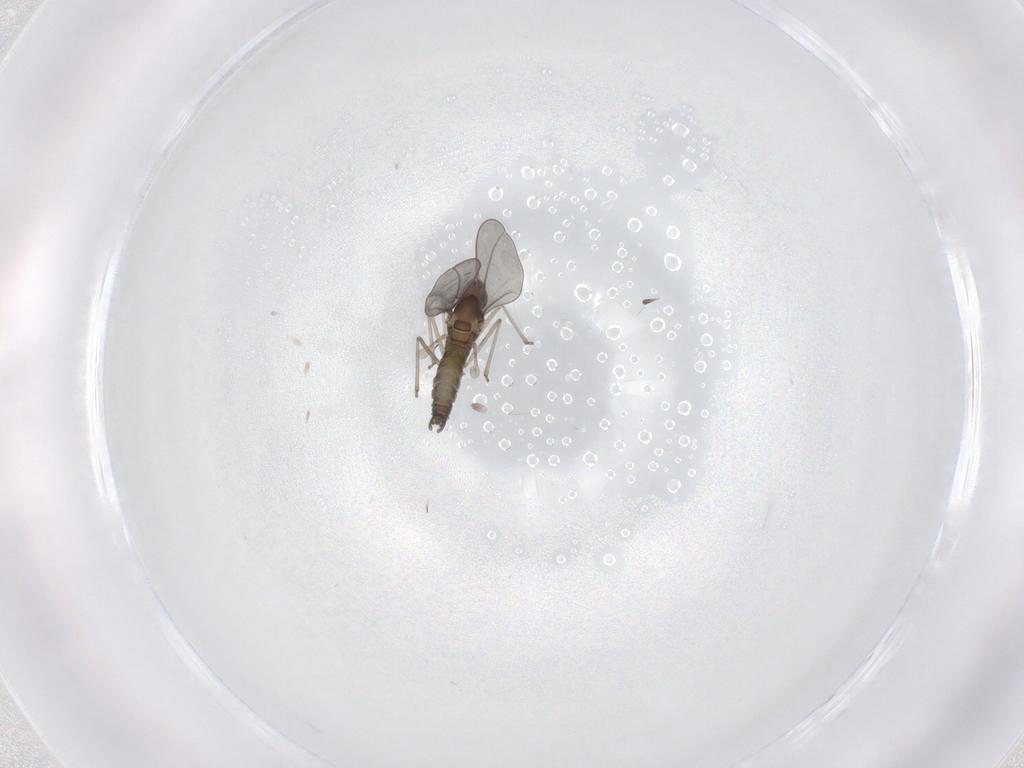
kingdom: Animalia
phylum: Arthropoda
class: Insecta
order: Diptera
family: Cecidomyiidae
